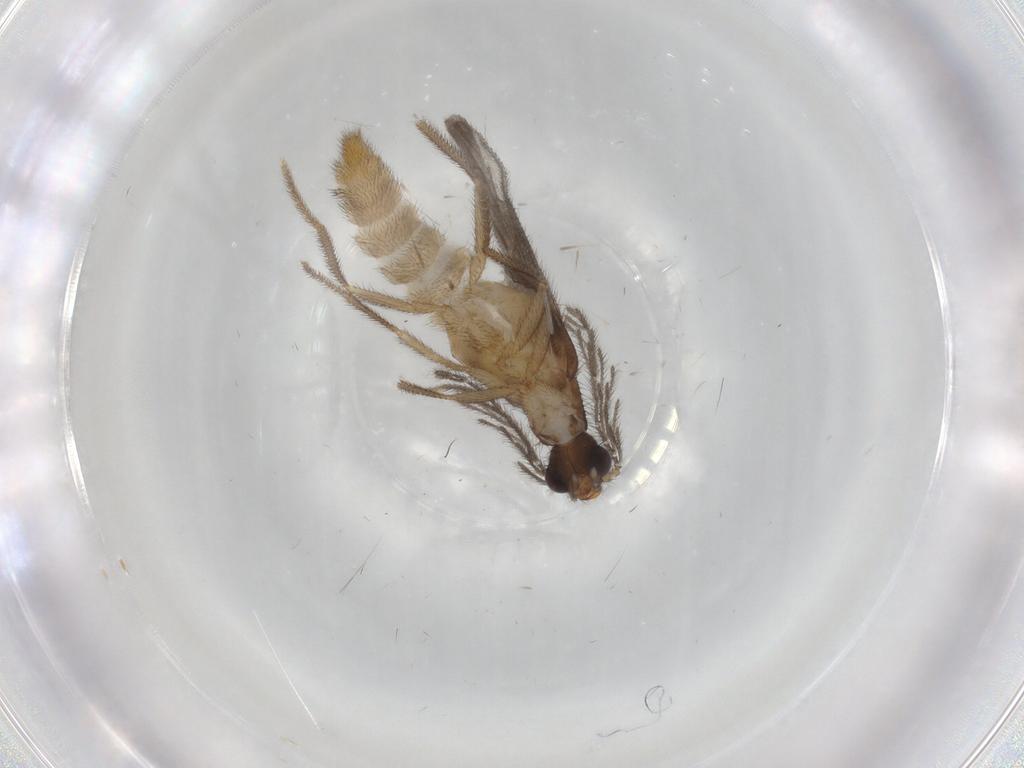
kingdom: Animalia
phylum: Arthropoda
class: Insecta
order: Coleoptera
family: Phengodidae
